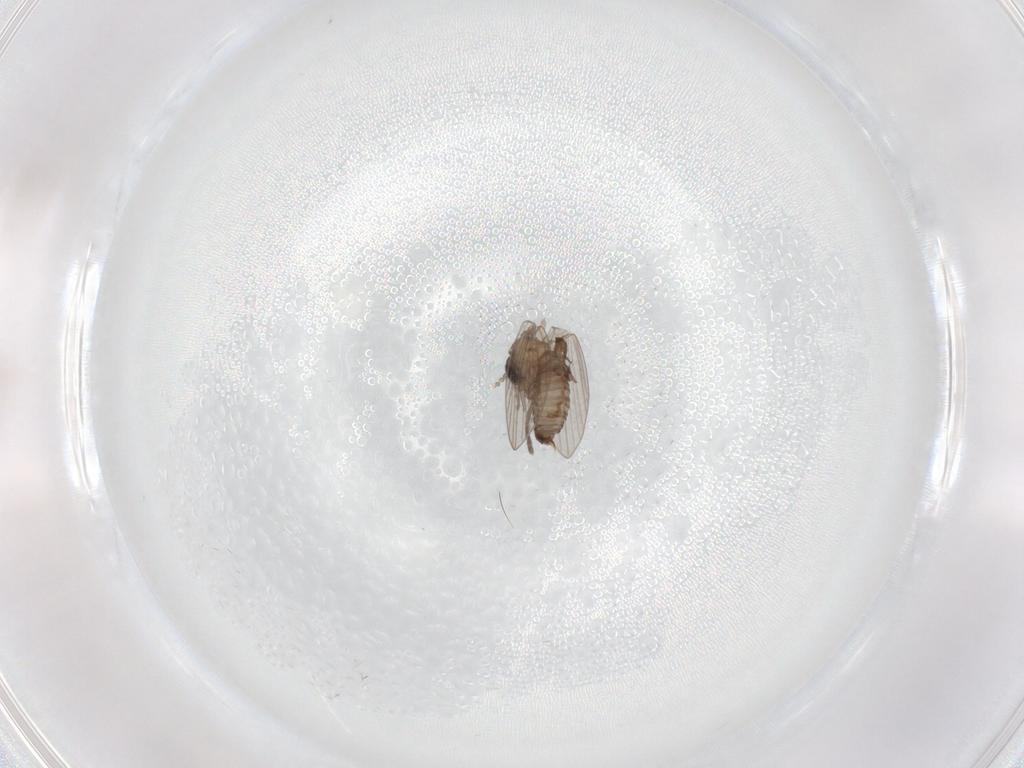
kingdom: Animalia
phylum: Arthropoda
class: Insecta
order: Diptera
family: Psychodidae
